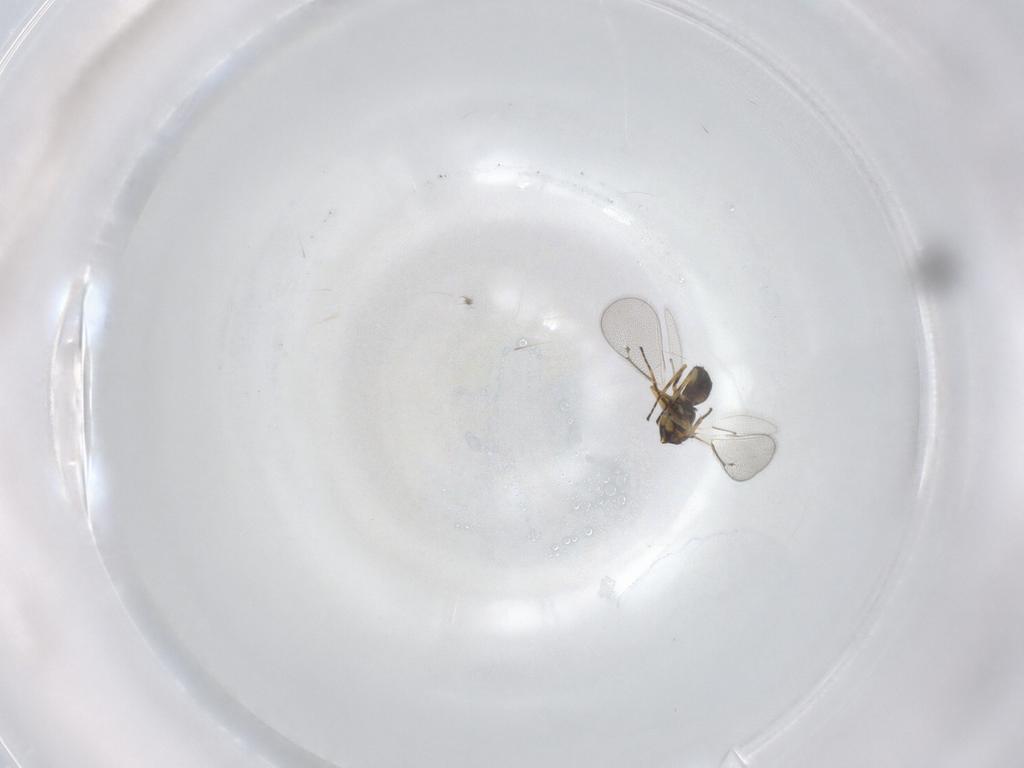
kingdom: Animalia
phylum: Arthropoda
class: Insecta
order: Hymenoptera
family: Eulophidae
